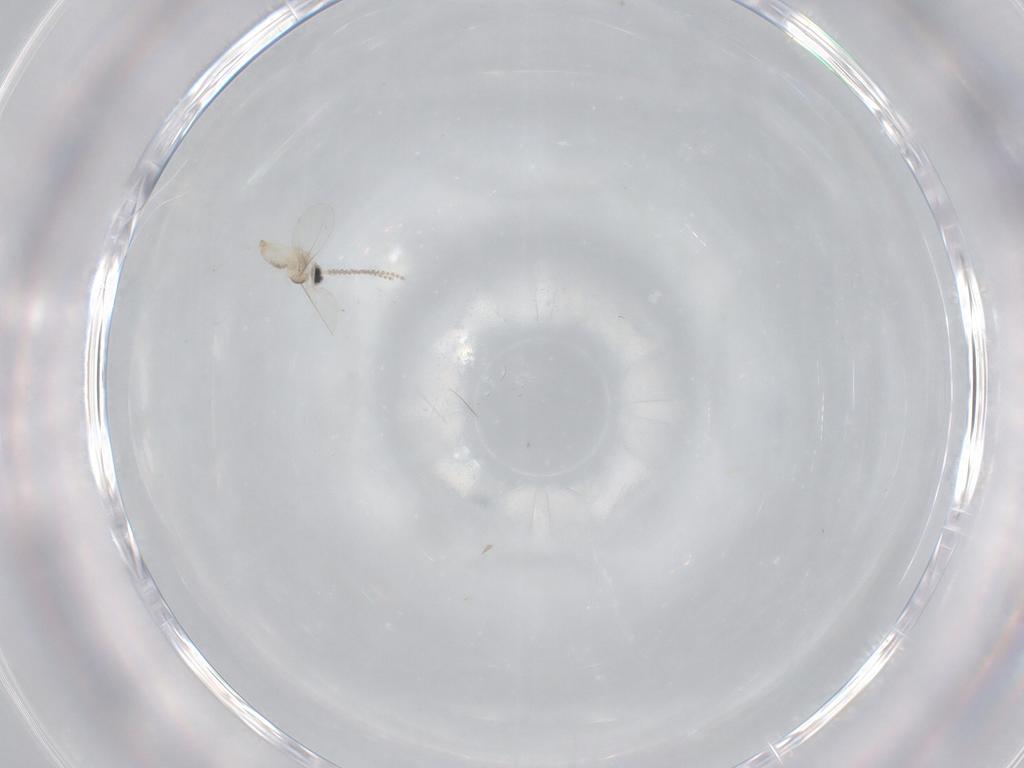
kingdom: Animalia
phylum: Arthropoda
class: Insecta
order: Diptera
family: Cecidomyiidae
